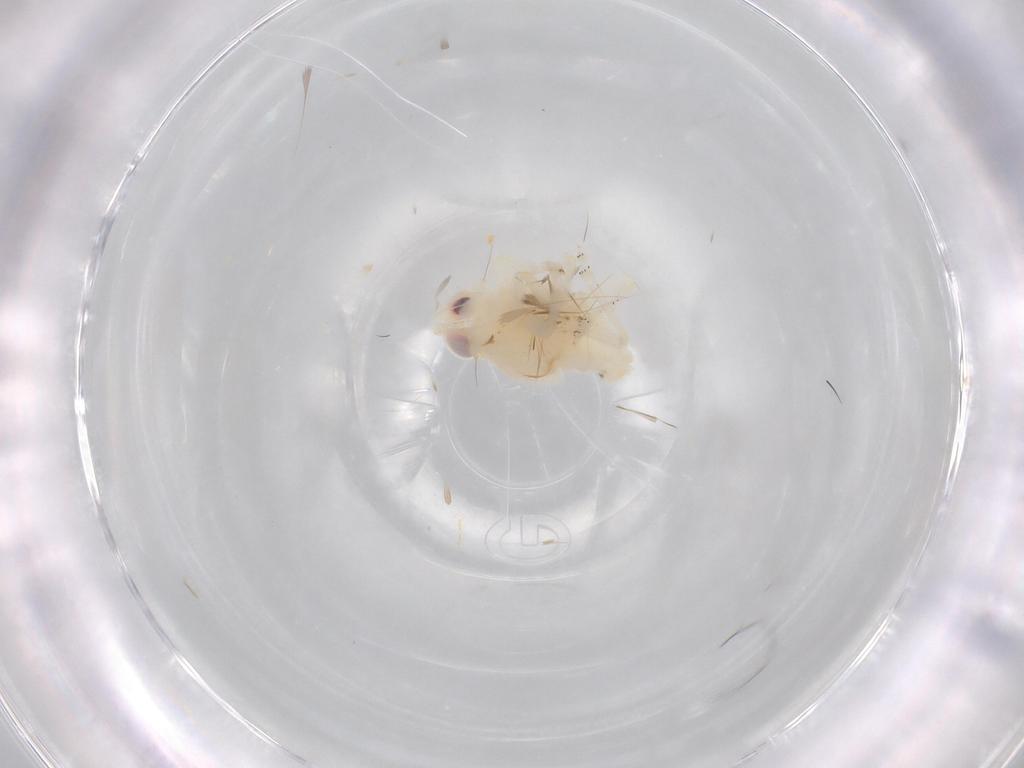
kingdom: Animalia
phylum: Arthropoda
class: Insecta
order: Hemiptera
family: Nogodinidae
